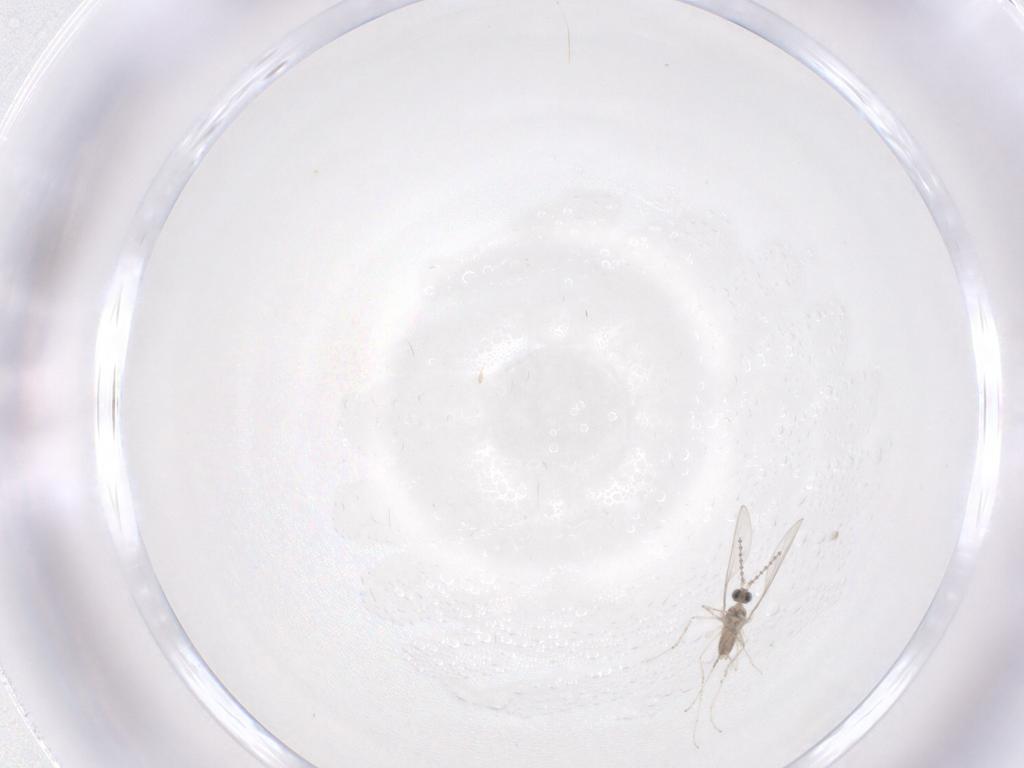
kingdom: Animalia
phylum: Arthropoda
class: Insecta
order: Diptera
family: Cecidomyiidae
